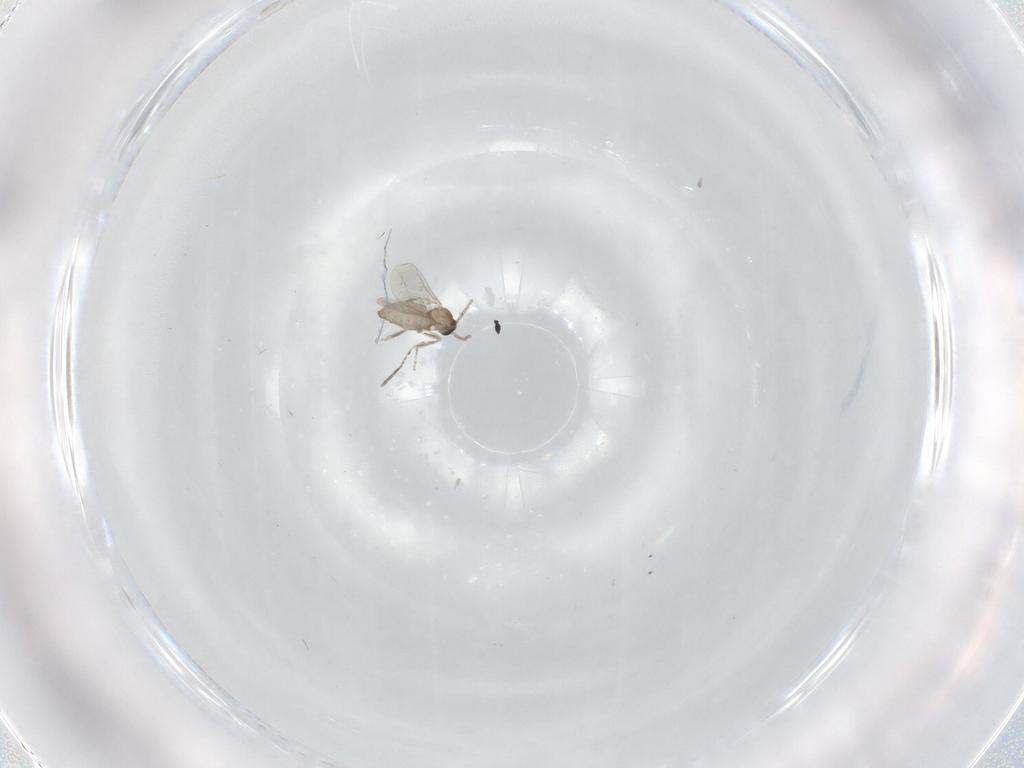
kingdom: Animalia
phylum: Arthropoda
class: Insecta
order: Diptera
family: Cecidomyiidae
